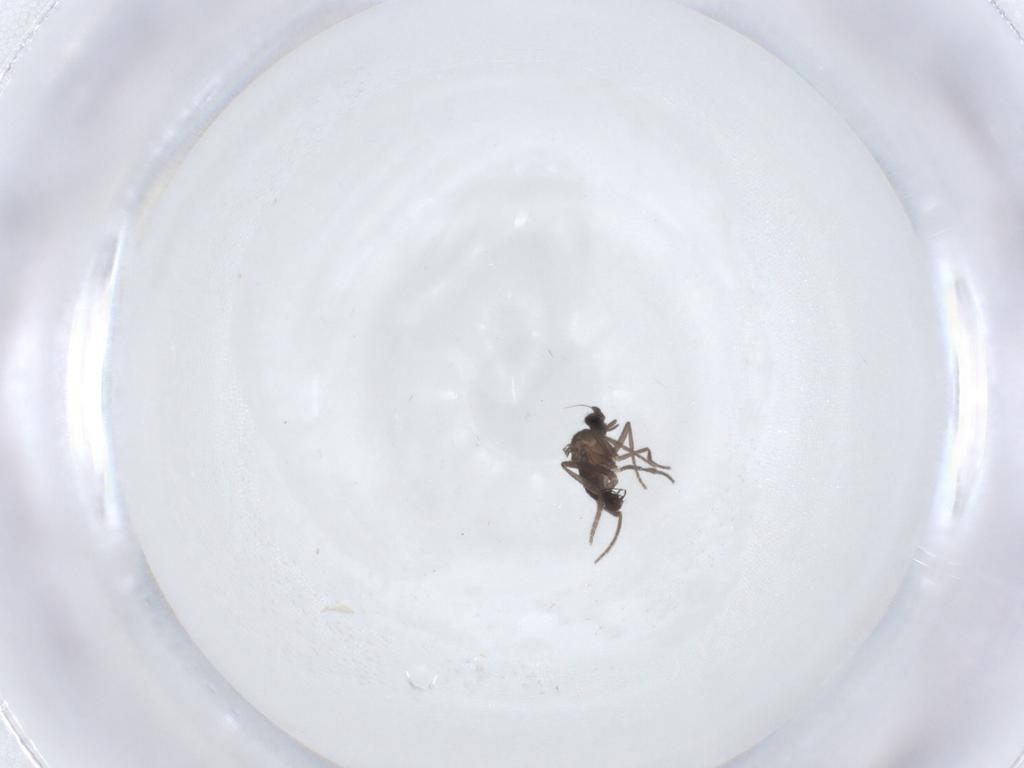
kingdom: Animalia
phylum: Arthropoda
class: Insecta
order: Diptera
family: Phoridae
